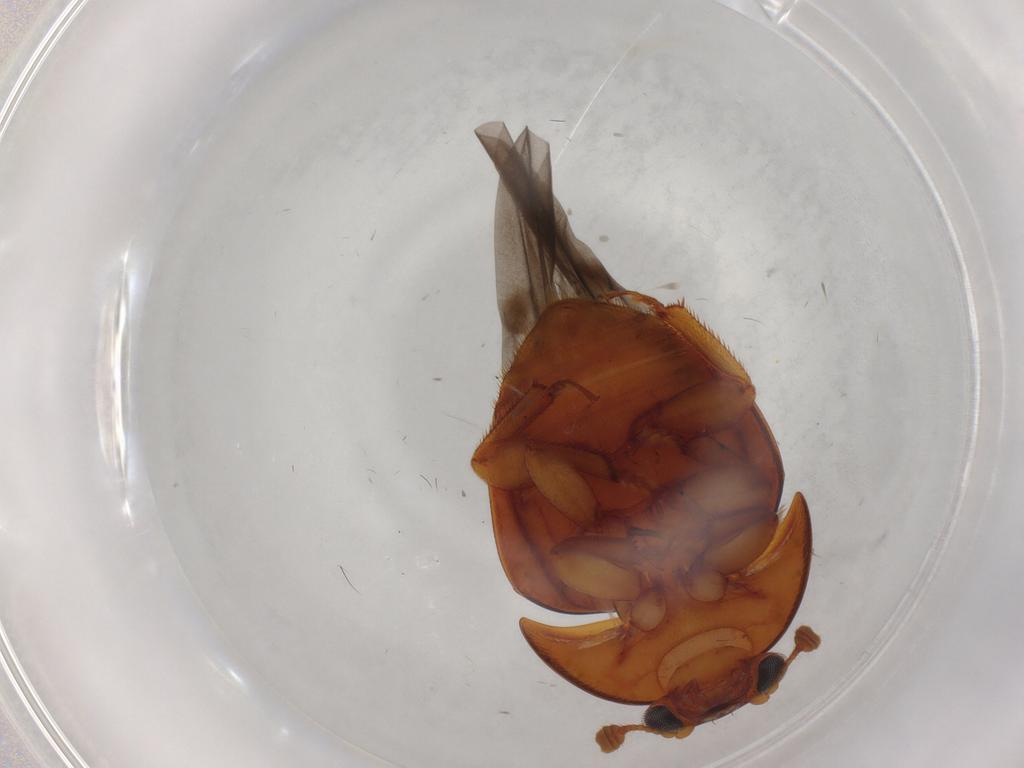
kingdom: Animalia
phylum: Arthropoda
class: Insecta
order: Coleoptera
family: Nitidulidae
